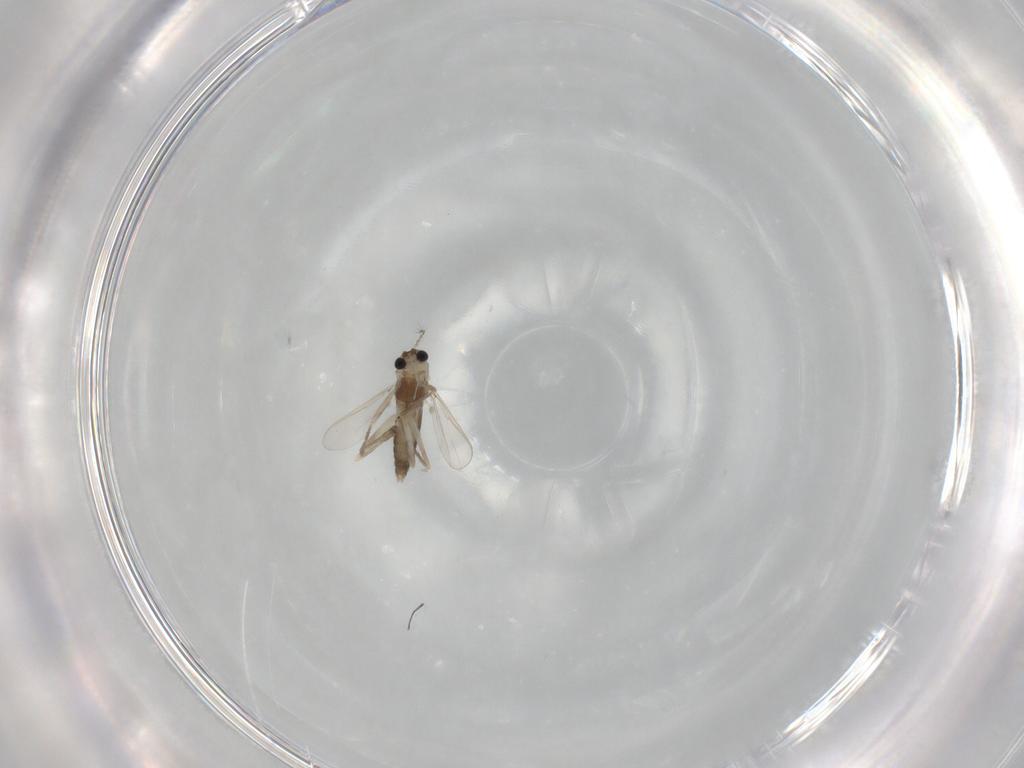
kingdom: Animalia
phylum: Arthropoda
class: Insecta
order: Diptera
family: Chironomidae
